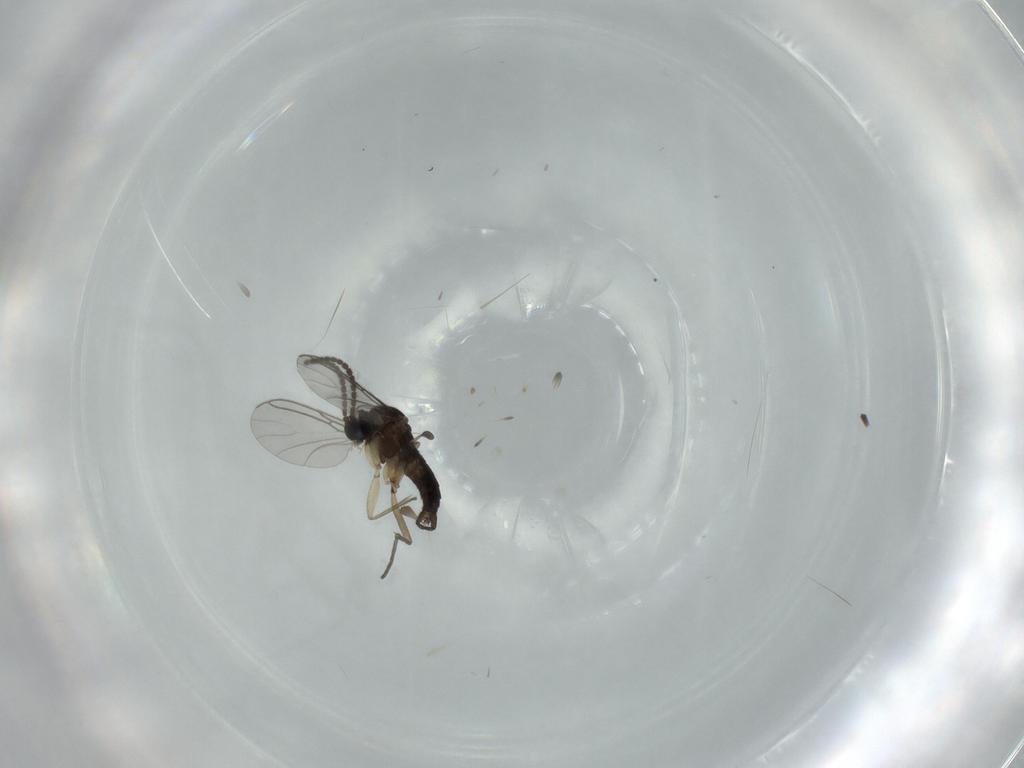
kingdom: Animalia
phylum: Arthropoda
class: Insecta
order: Diptera
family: Sciaridae
